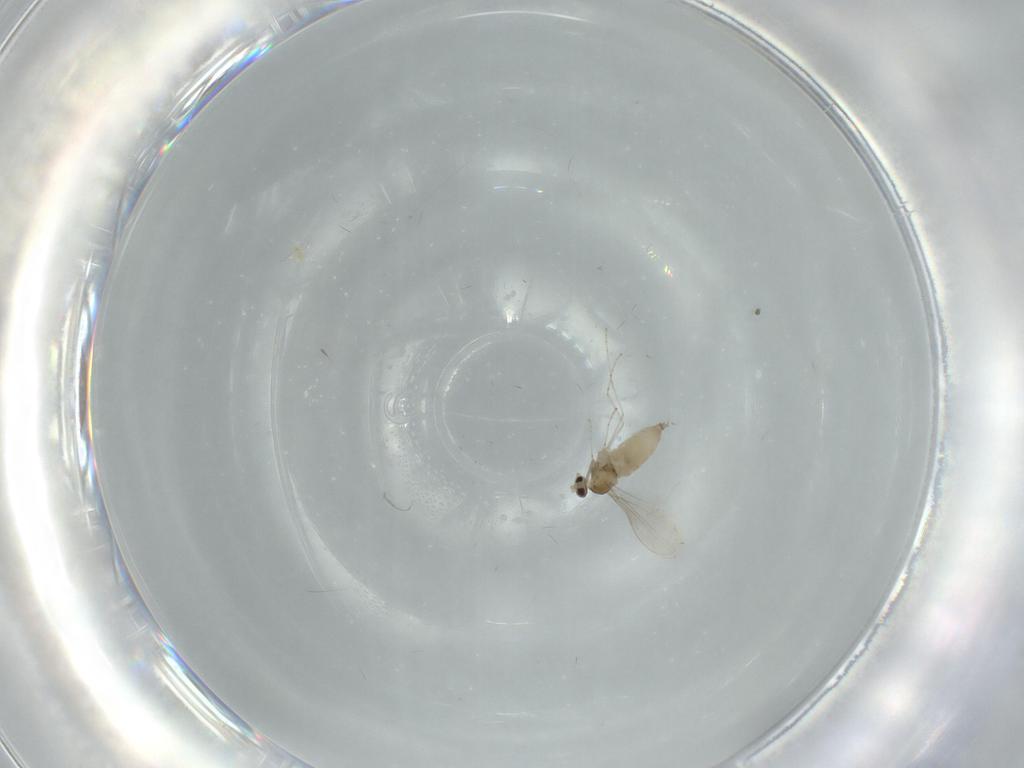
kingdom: Animalia
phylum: Arthropoda
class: Insecta
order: Diptera
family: Cecidomyiidae
